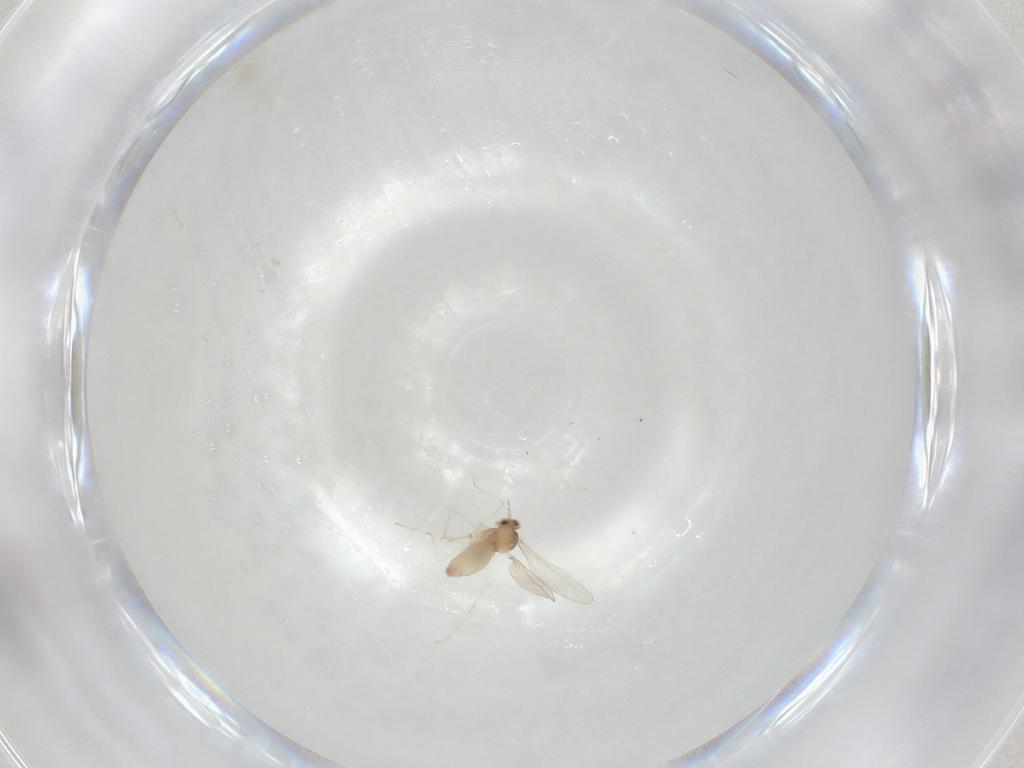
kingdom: Animalia
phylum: Arthropoda
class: Insecta
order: Diptera
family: Cecidomyiidae
